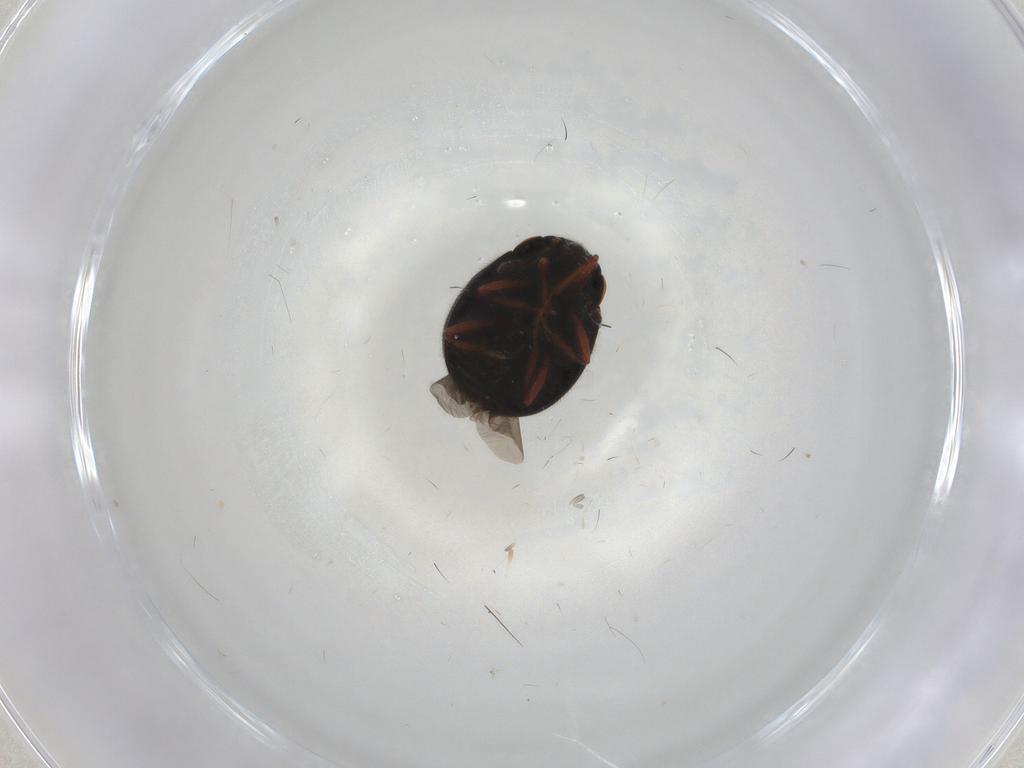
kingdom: Animalia
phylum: Arthropoda
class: Insecta
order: Coleoptera
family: Sphindidae
